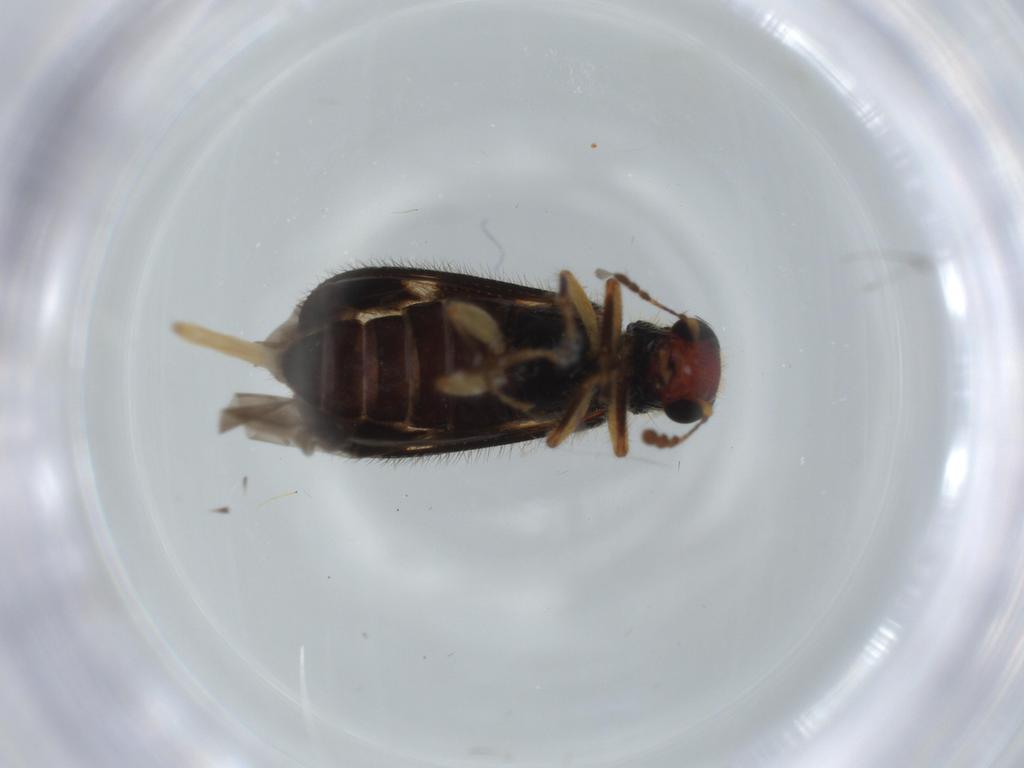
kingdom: Animalia
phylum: Arthropoda
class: Insecta
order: Coleoptera
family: Cleridae
